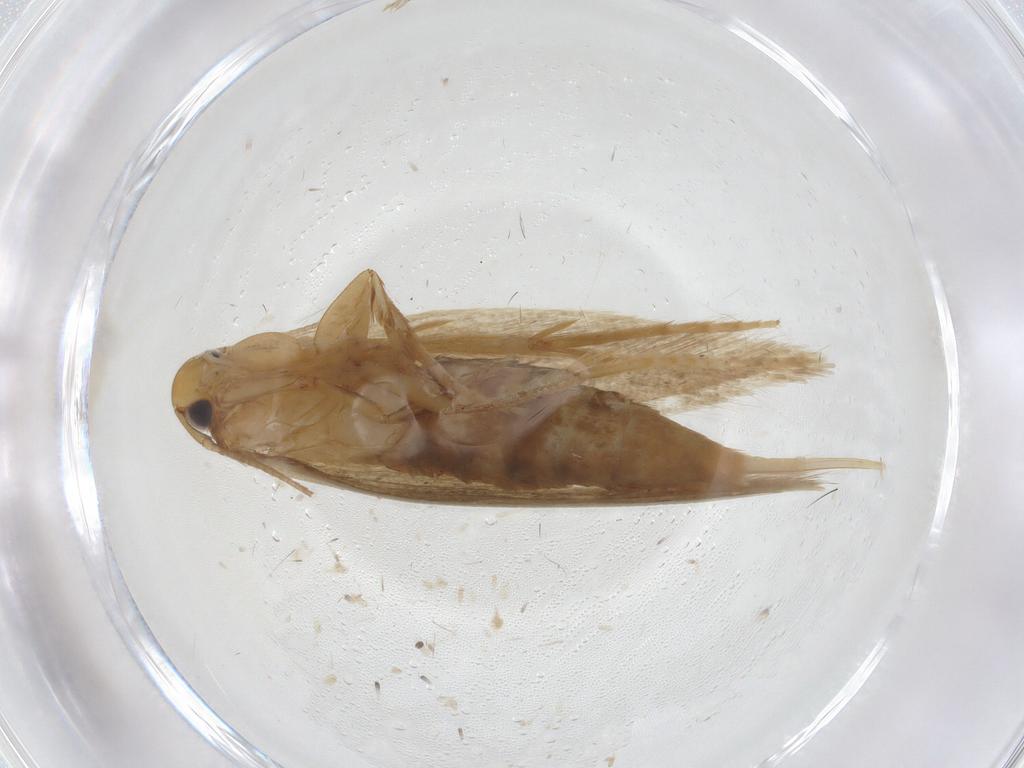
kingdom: Animalia
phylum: Arthropoda
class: Insecta
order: Lepidoptera
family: Tineidae
